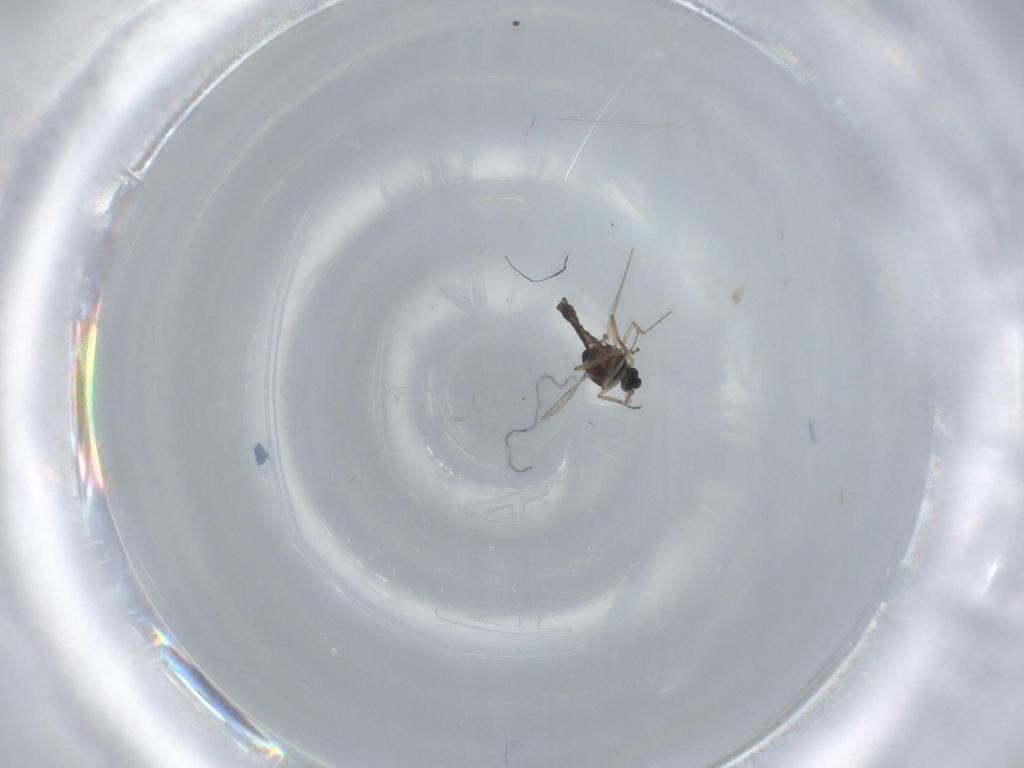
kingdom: Animalia
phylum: Arthropoda
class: Insecta
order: Diptera
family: Ceratopogonidae
